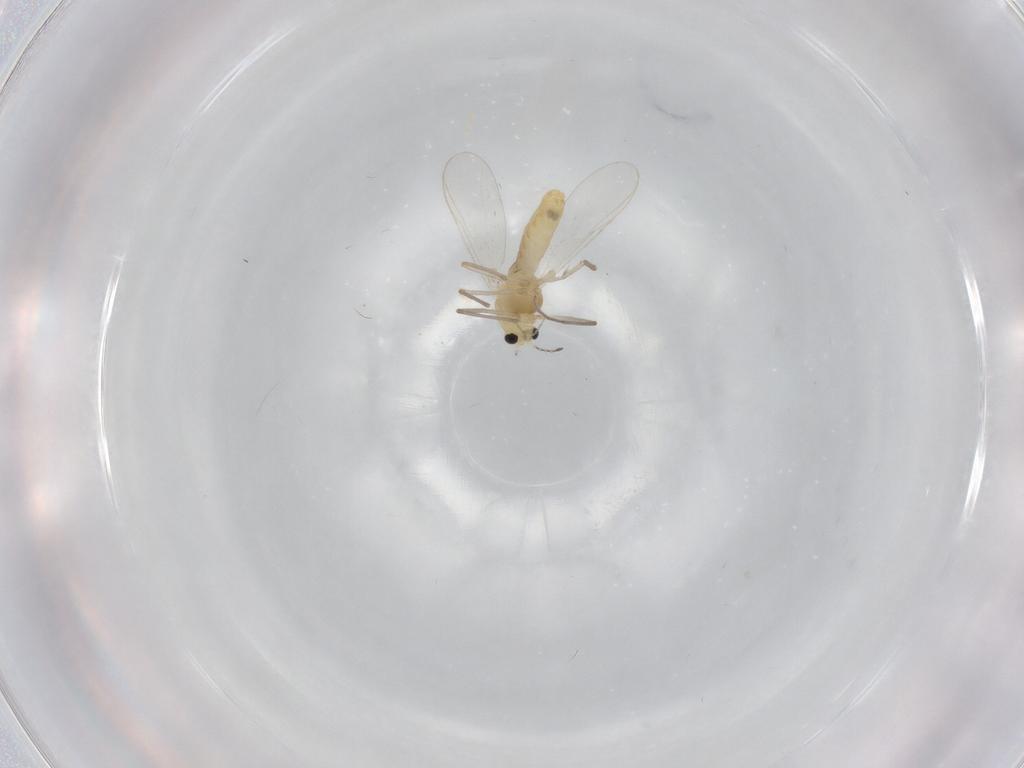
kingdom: Animalia
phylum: Arthropoda
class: Insecta
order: Diptera
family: Chironomidae
